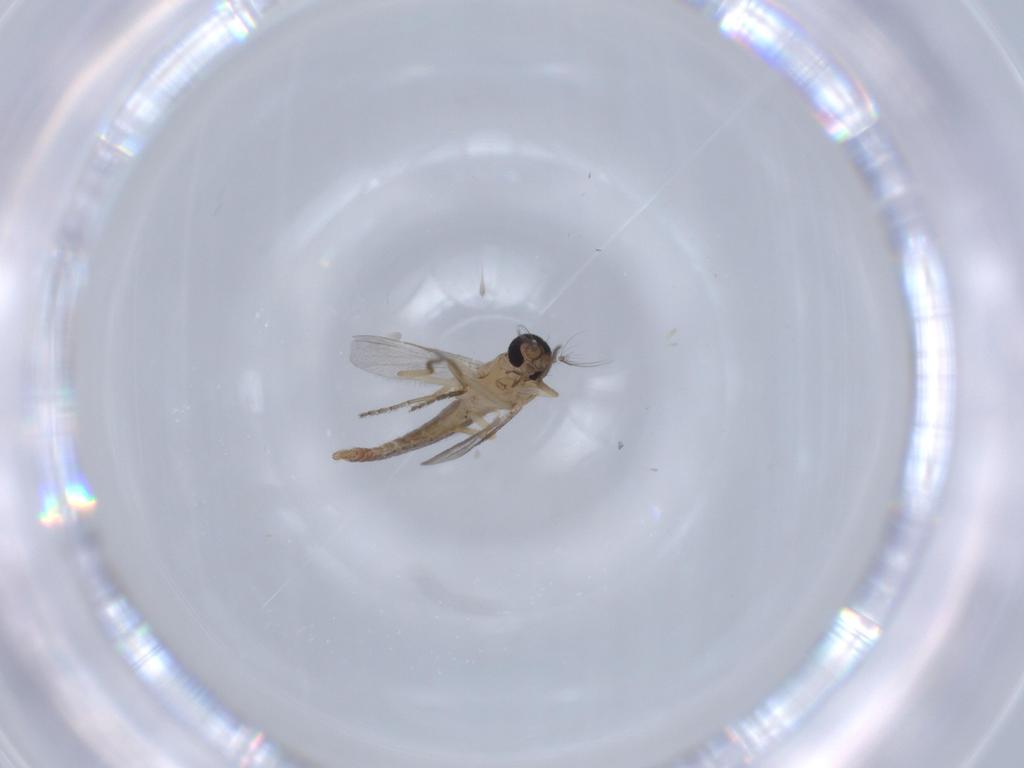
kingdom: Animalia
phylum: Arthropoda
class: Insecta
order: Diptera
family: Ceratopogonidae
